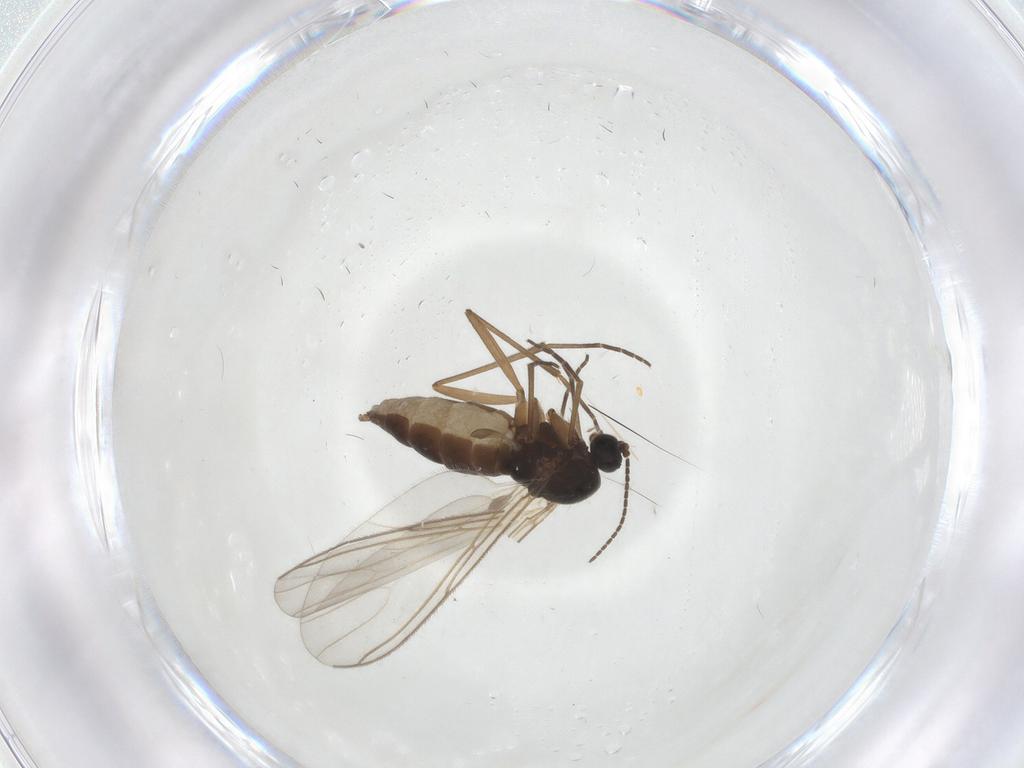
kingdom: Animalia
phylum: Arthropoda
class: Insecta
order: Diptera
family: Sciaridae
